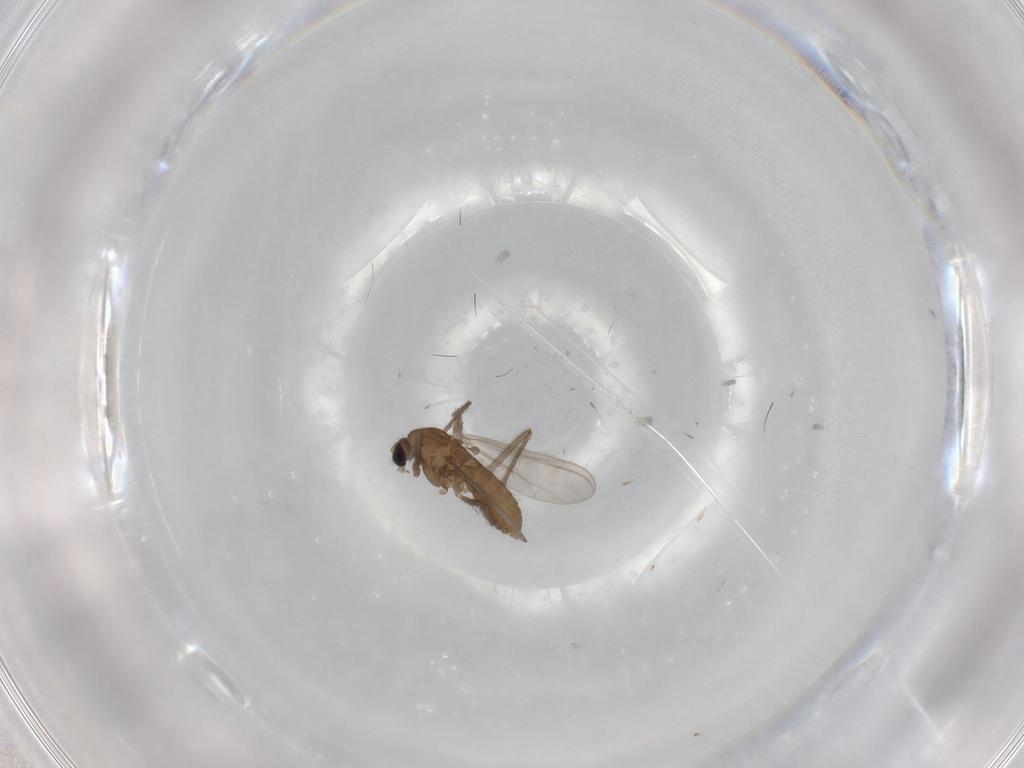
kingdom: Animalia
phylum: Arthropoda
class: Insecta
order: Diptera
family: Chironomidae
